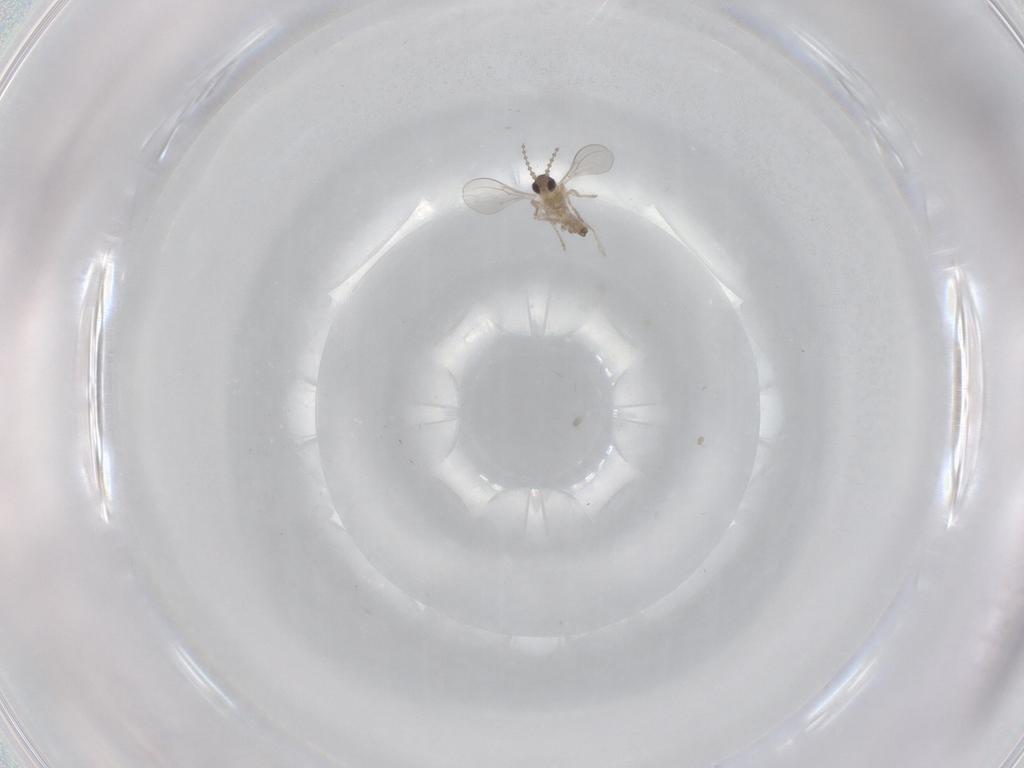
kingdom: Animalia
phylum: Arthropoda
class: Insecta
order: Diptera
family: Cecidomyiidae
